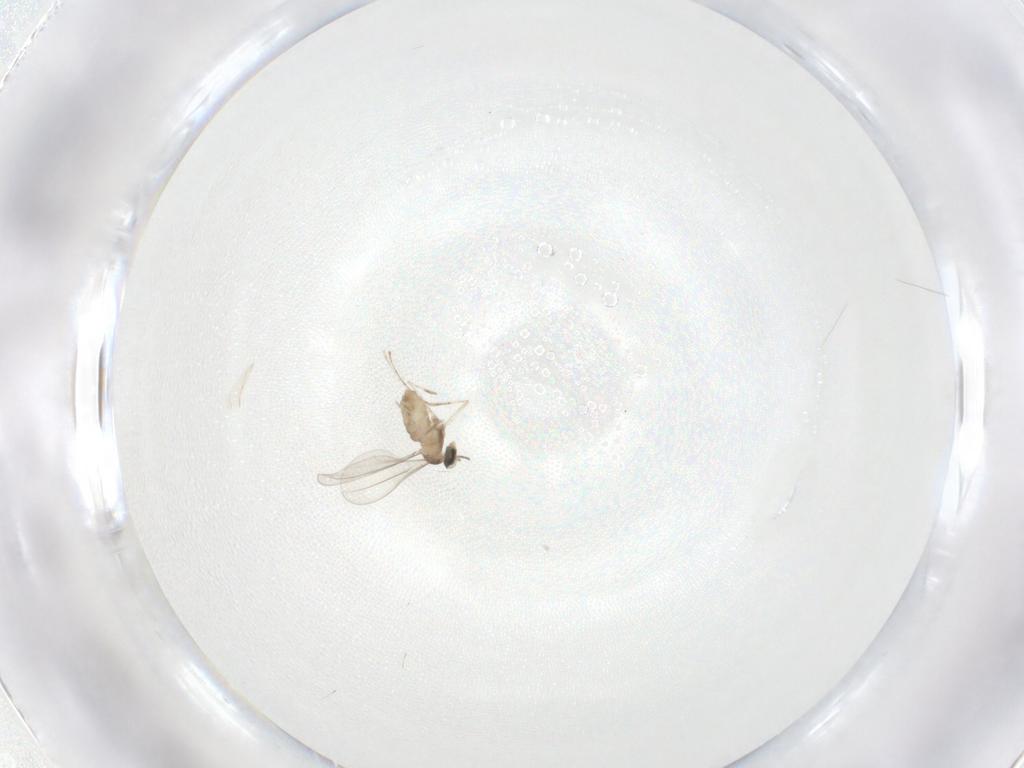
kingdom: Animalia
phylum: Arthropoda
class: Insecta
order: Diptera
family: Cecidomyiidae
